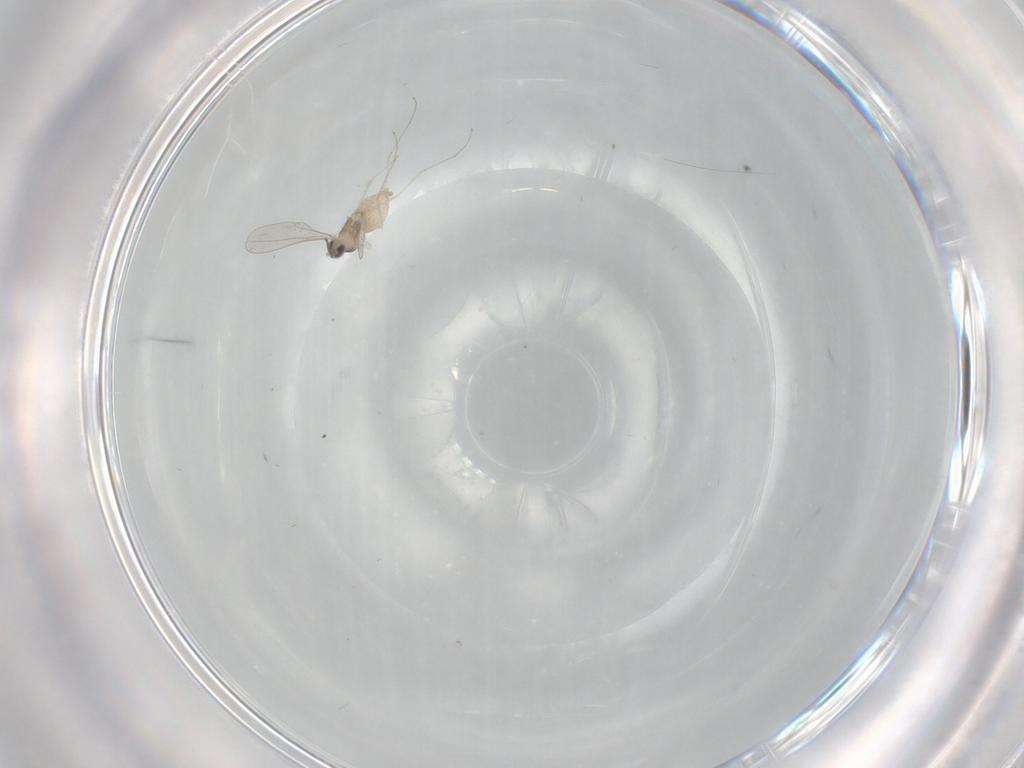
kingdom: Animalia
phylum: Arthropoda
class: Insecta
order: Diptera
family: Cecidomyiidae
